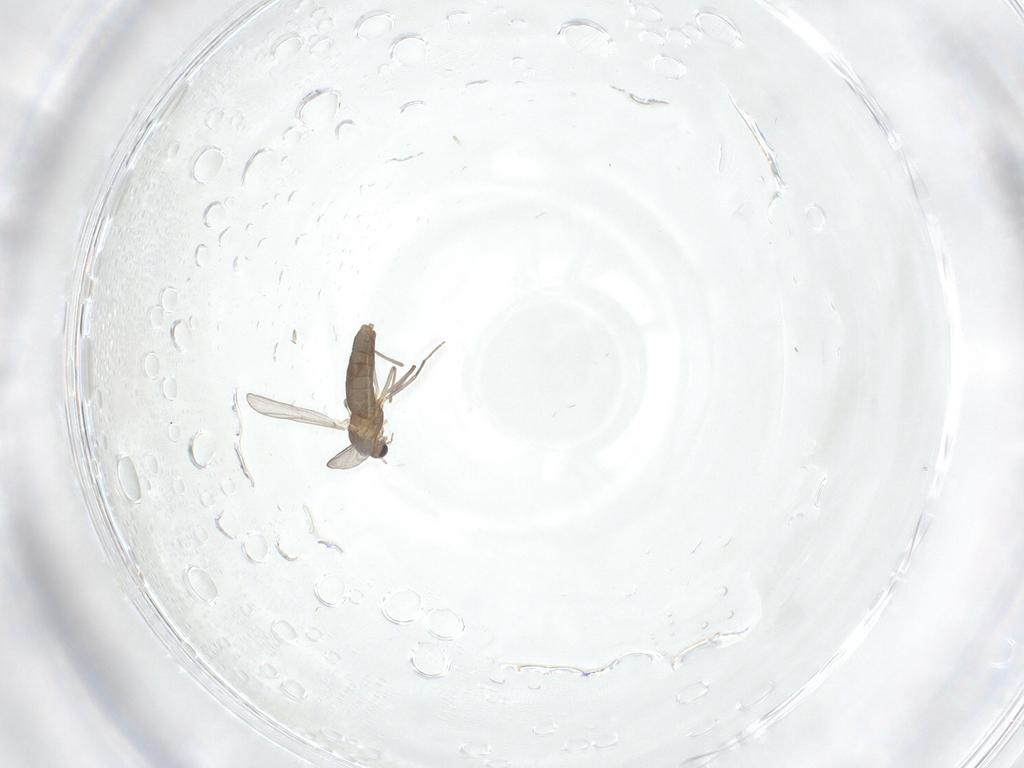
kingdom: Animalia
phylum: Arthropoda
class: Insecta
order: Diptera
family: Chironomidae
